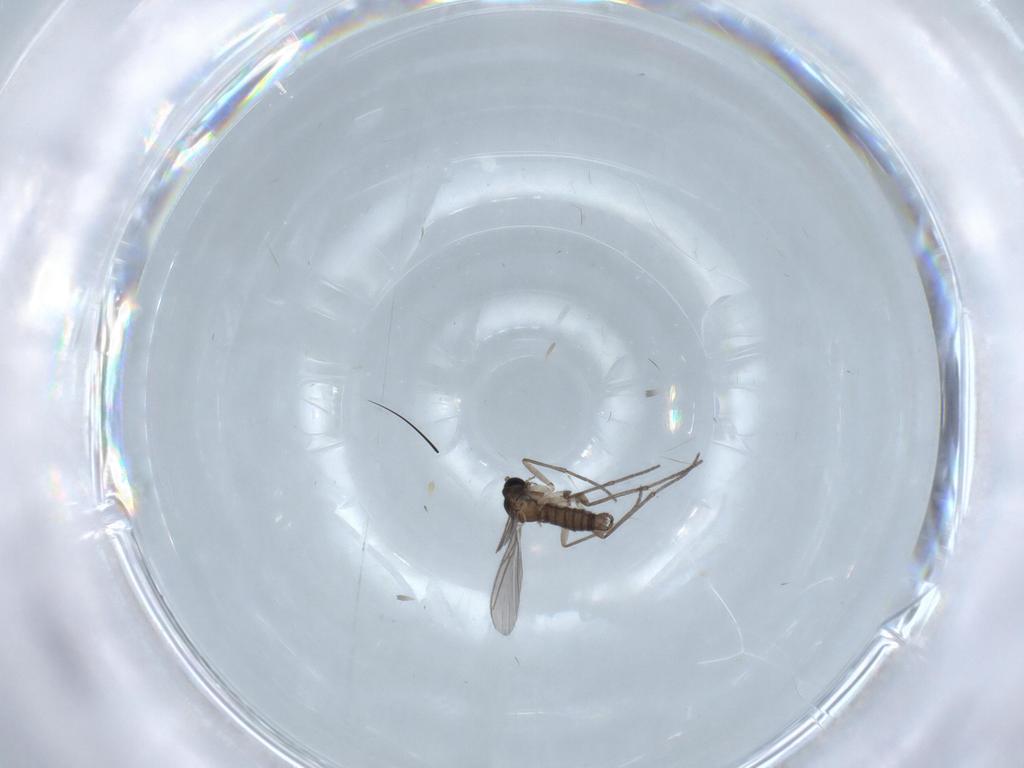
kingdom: Animalia
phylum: Arthropoda
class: Insecta
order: Diptera
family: Sciaridae
